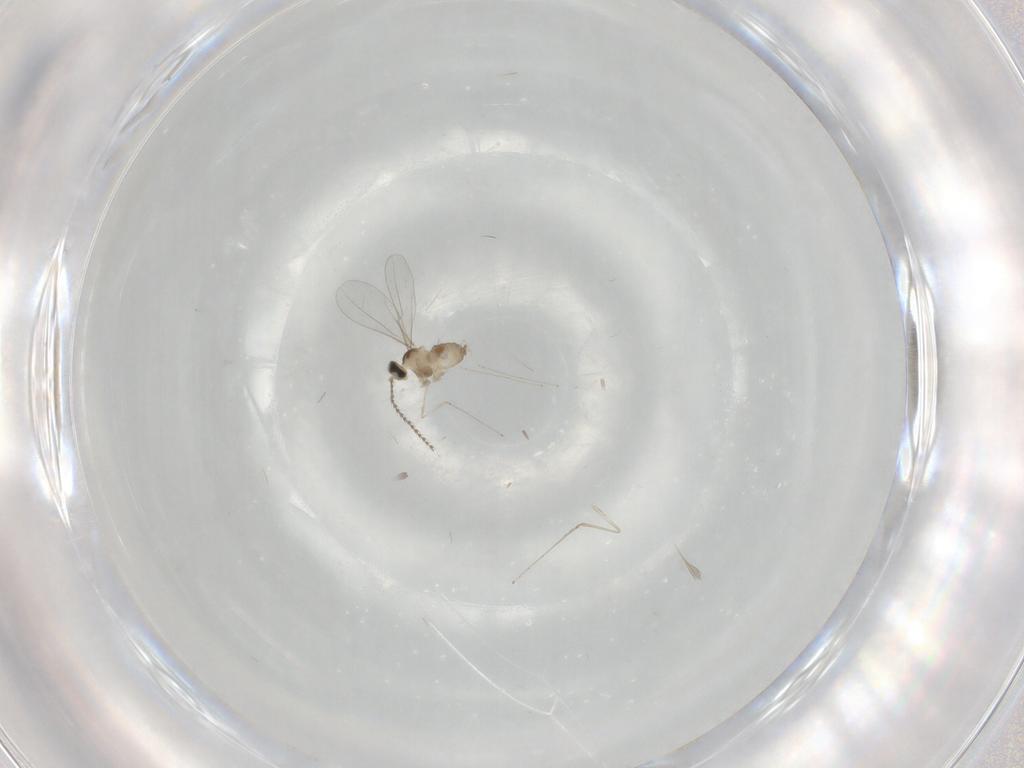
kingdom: Animalia
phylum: Arthropoda
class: Insecta
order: Diptera
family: Cecidomyiidae
